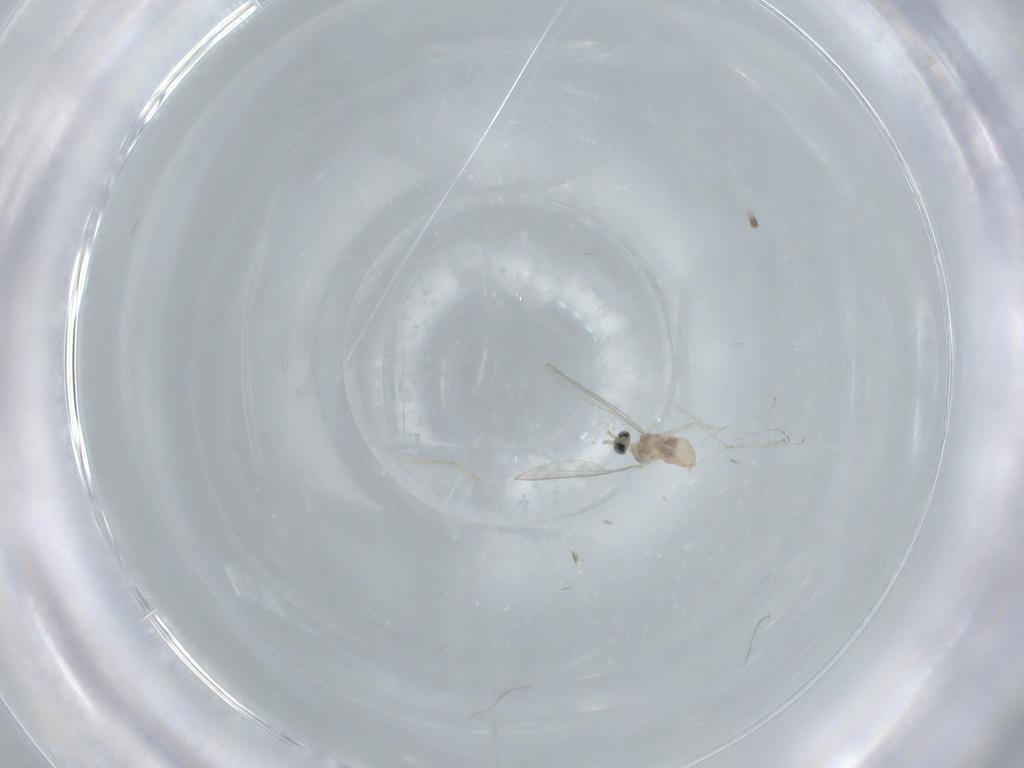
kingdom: Animalia
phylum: Arthropoda
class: Insecta
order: Diptera
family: Cecidomyiidae
